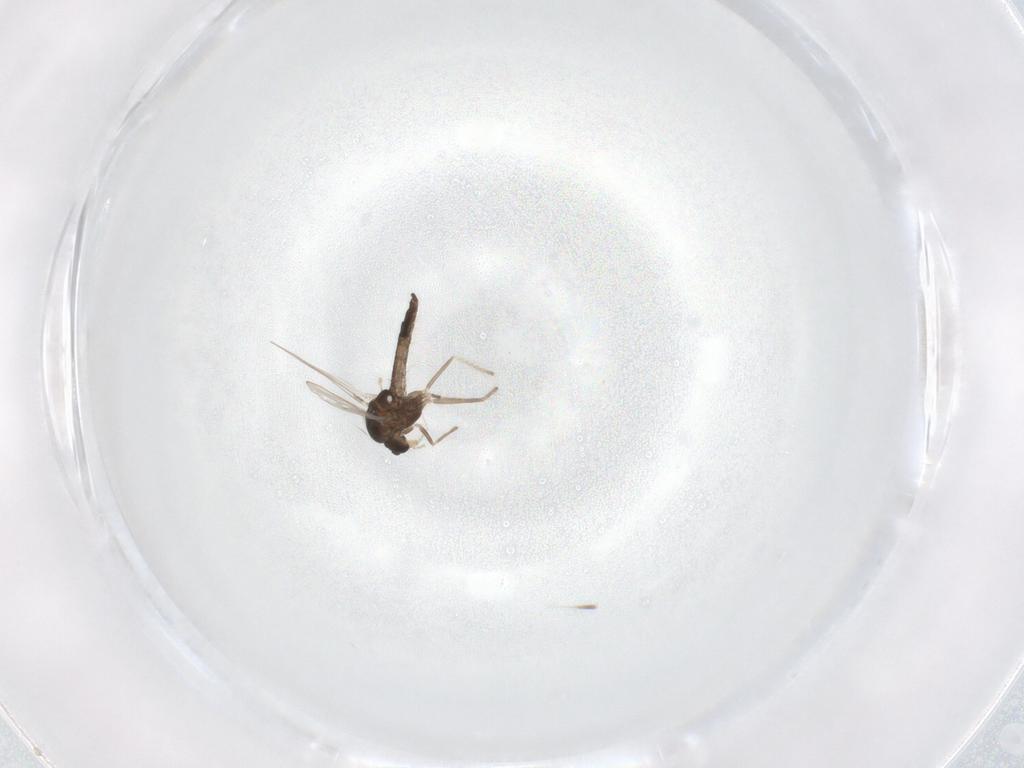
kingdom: Animalia
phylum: Arthropoda
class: Insecta
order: Diptera
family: Chironomidae
